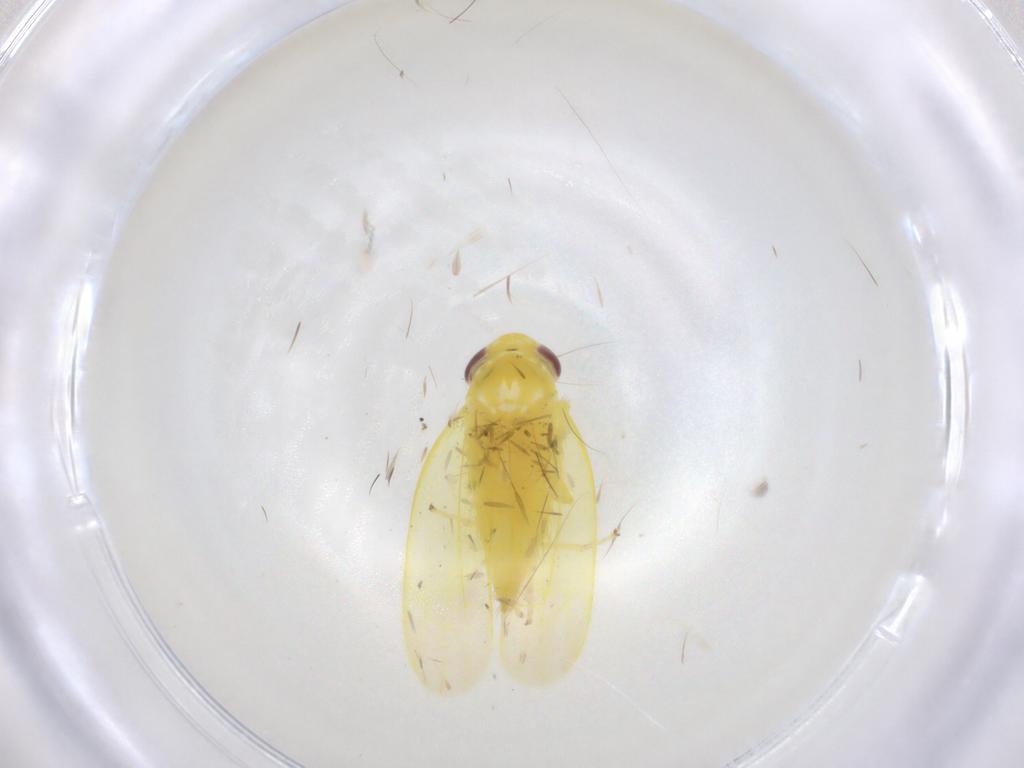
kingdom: Animalia
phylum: Arthropoda
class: Insecta
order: Hemiptera
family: Cicadellidae
